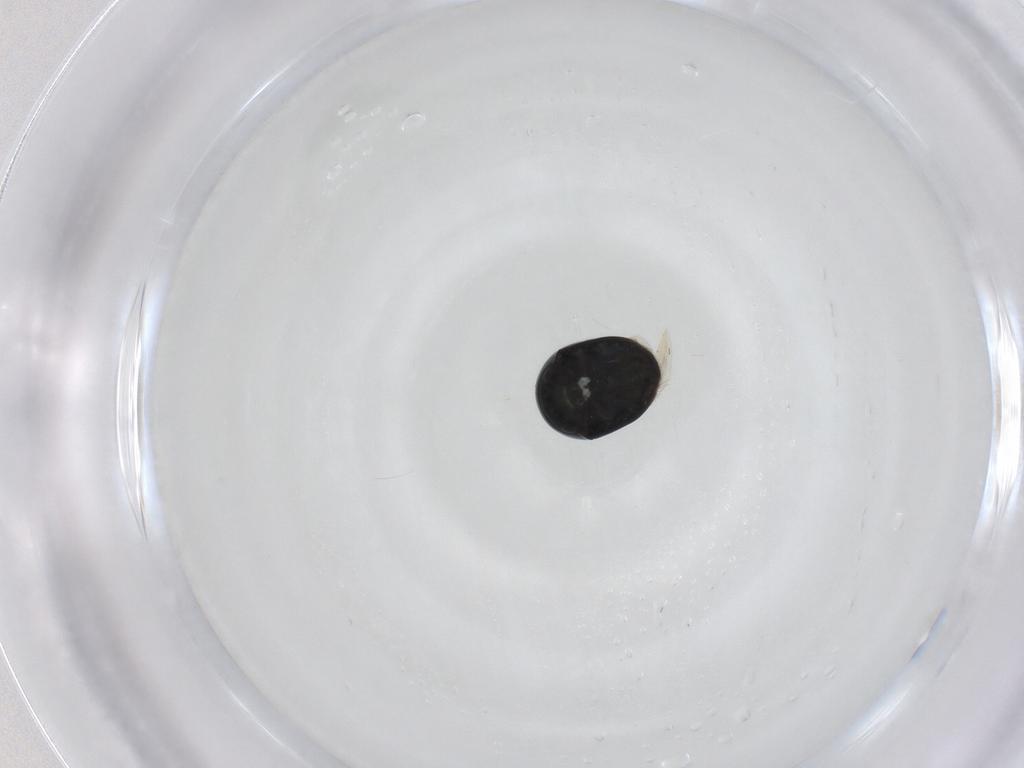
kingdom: Animalia
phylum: Arthropoda
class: Insecta
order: Coleoptera
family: Cybocephalidae
